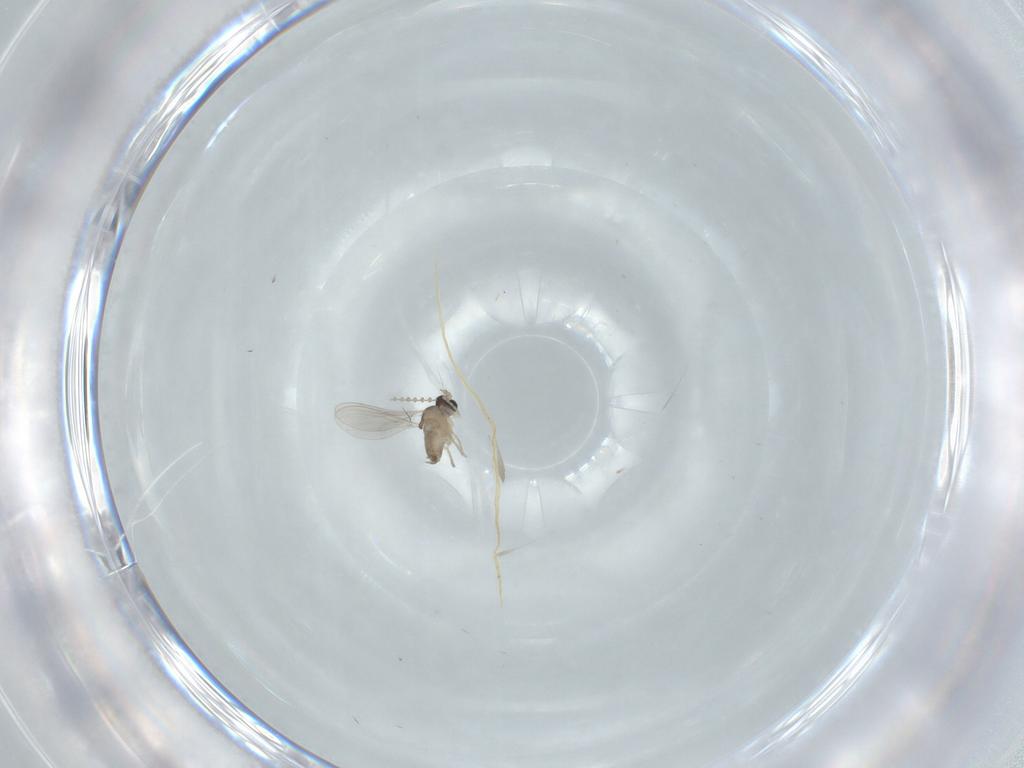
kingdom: Animalia
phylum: Arthropoda
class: Insecta
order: Diptera
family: Cecidomyiidae
